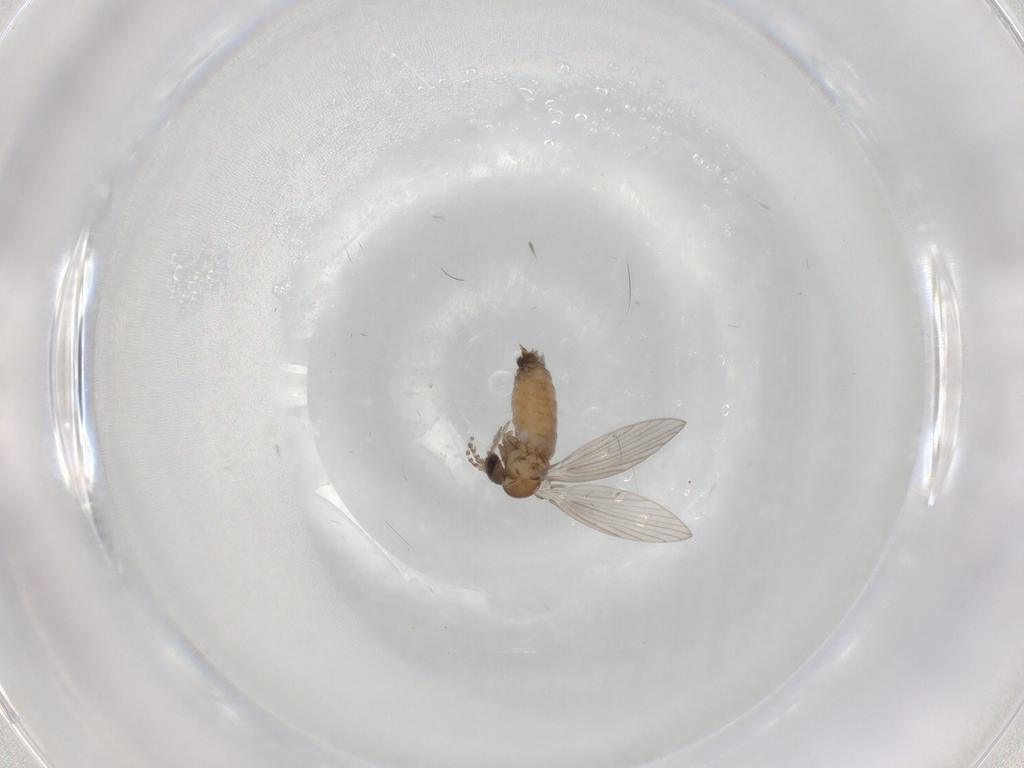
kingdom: Animalia
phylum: Arthropoda
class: Insecta
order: Diptera
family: Psychodidae
